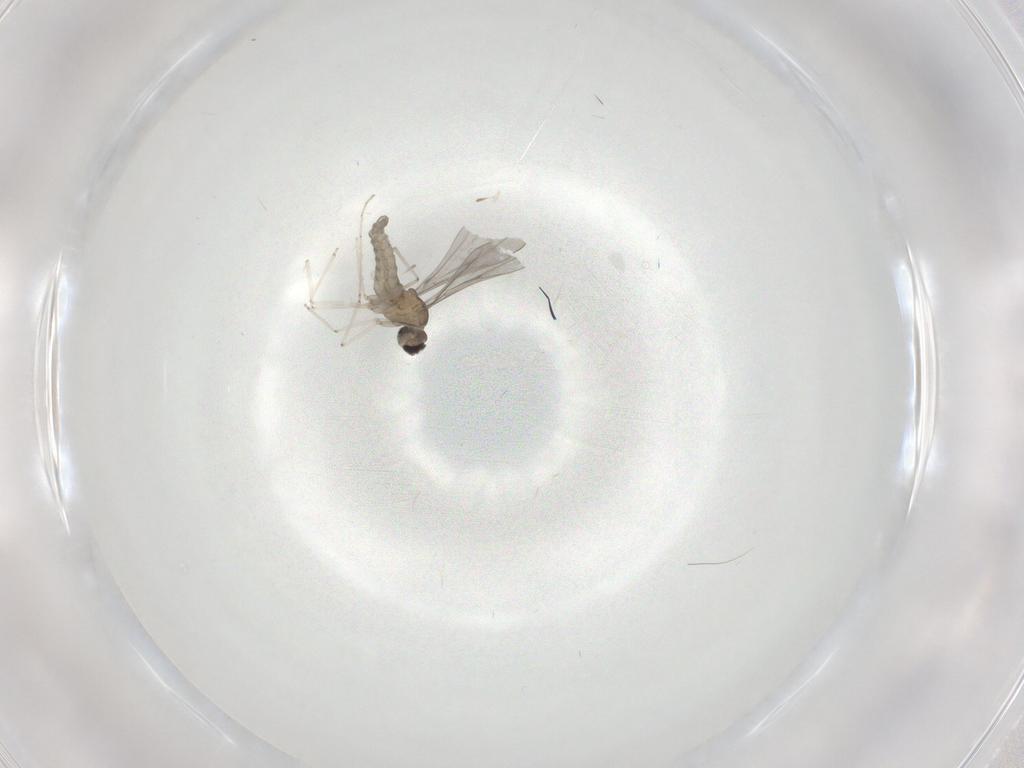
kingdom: Animalia
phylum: Arthropoda
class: Insecta
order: Diptera
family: Cecidomyiidae
